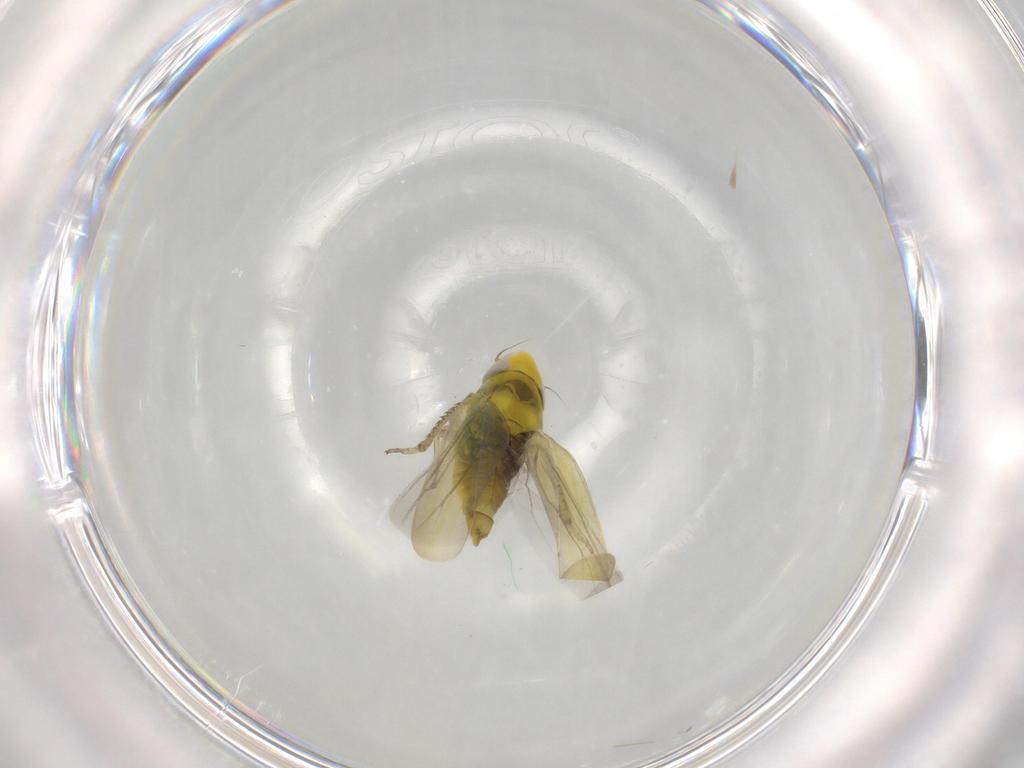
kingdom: Animalia
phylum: Arthropoda
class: Insecta
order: Hemiptera
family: Cicadellidae
